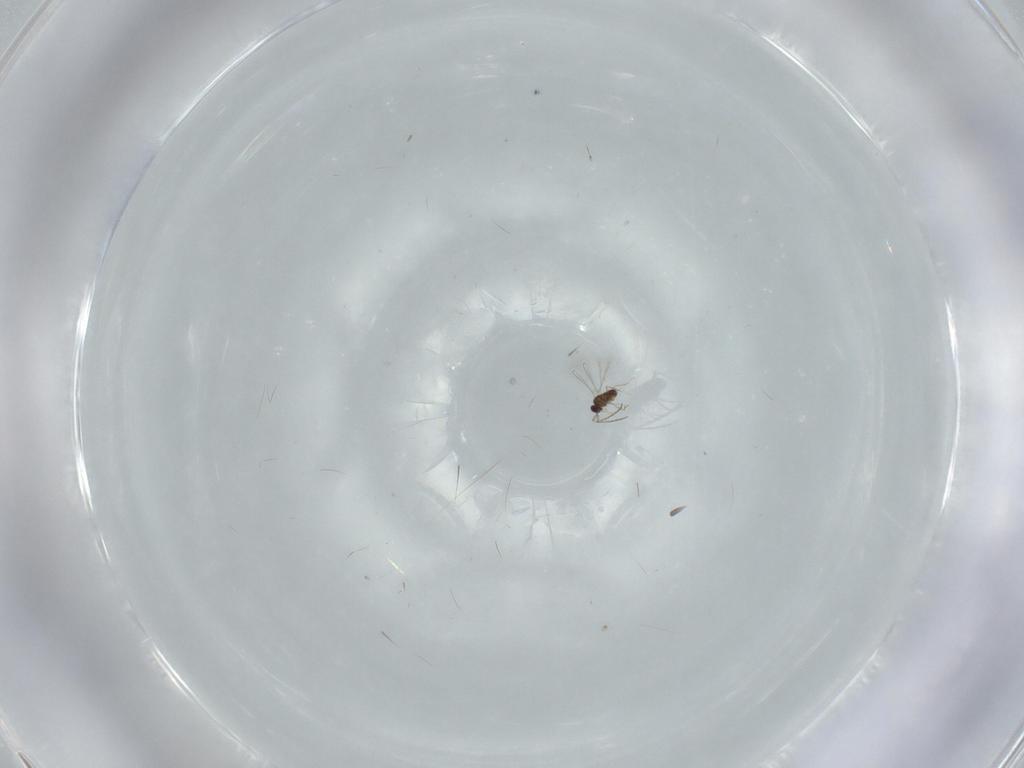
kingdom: Animalia
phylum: Arthropoda
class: Insecta
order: Hymenoptera
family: Mymaridae
